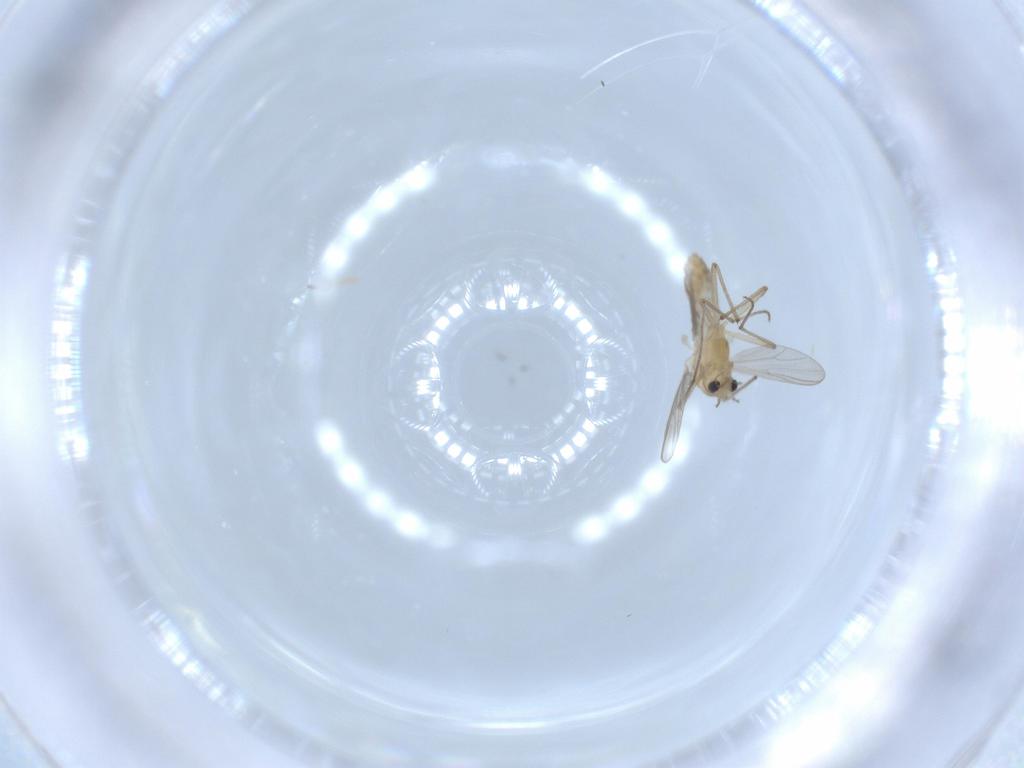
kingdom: Animalia
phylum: Arthropoda
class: Insecta
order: Diptera
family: Chironomidae
